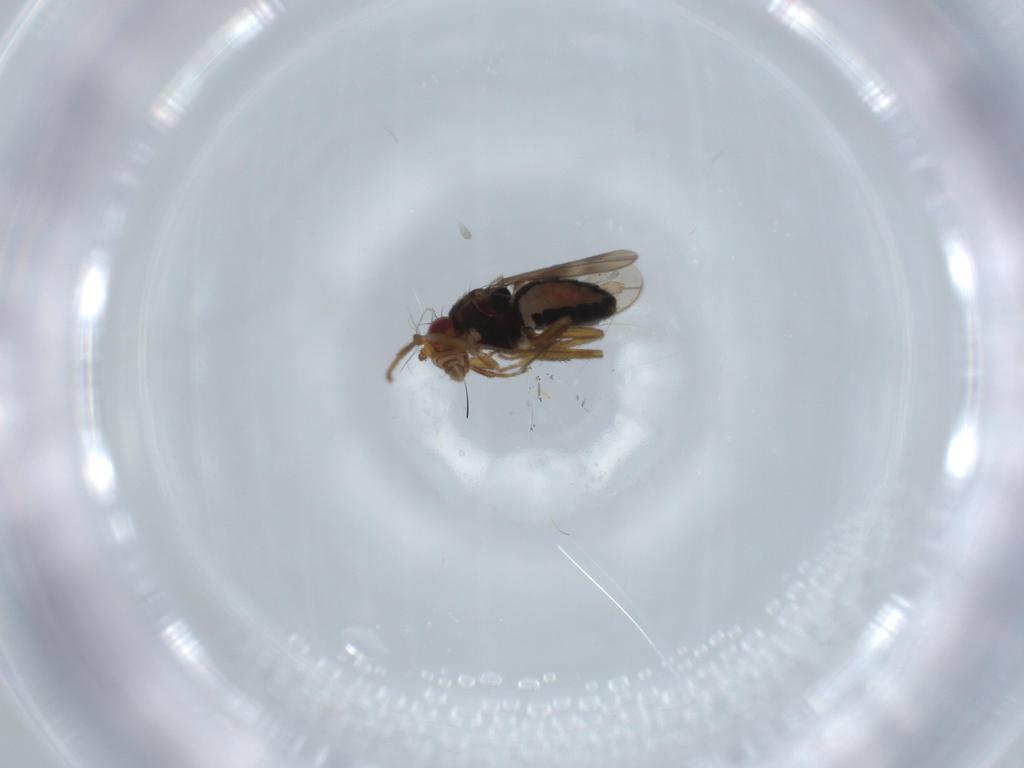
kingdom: Animalia
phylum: Arthropoda
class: Insecta
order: Diptera
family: Sphaeroceridae
